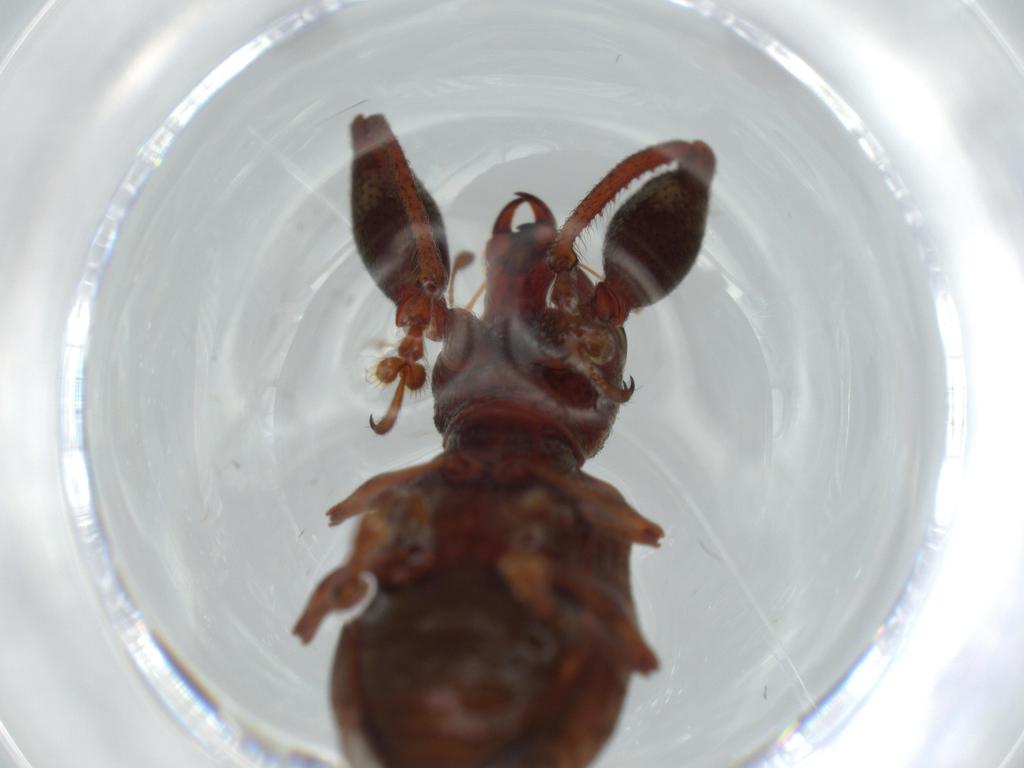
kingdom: Animalia
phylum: Arthropoda
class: Insecta
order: Coleoptera
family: Curculionidae
